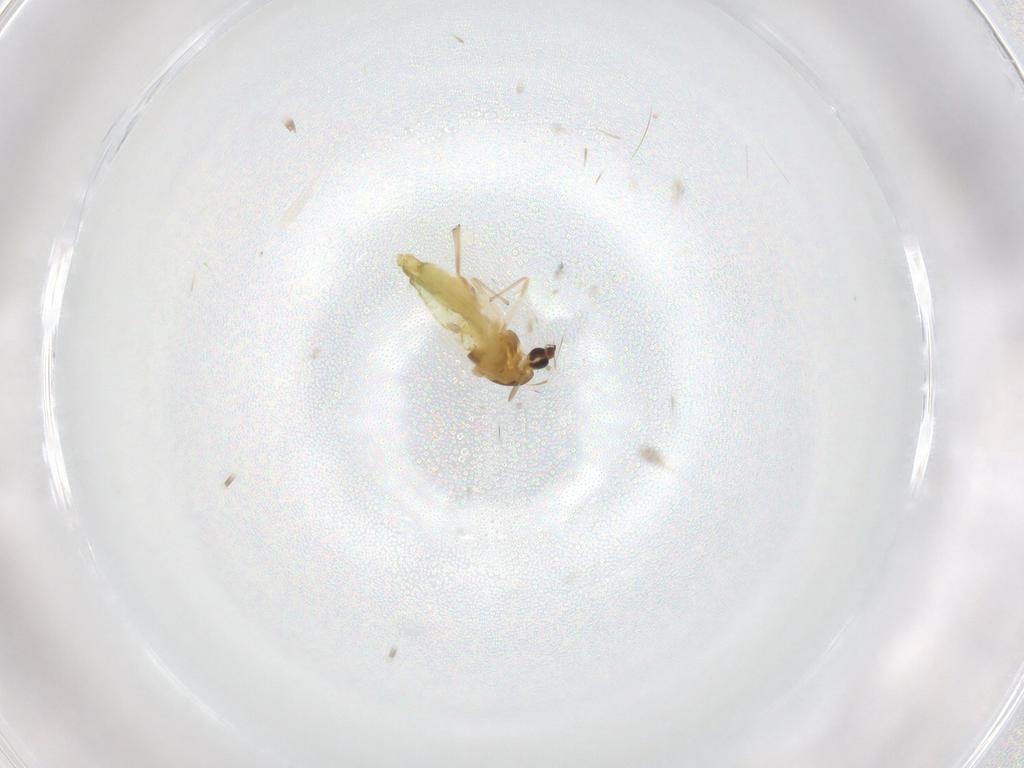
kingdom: Animalia
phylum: Arthropoda
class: Insecta
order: Diptera
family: Chironomidae
